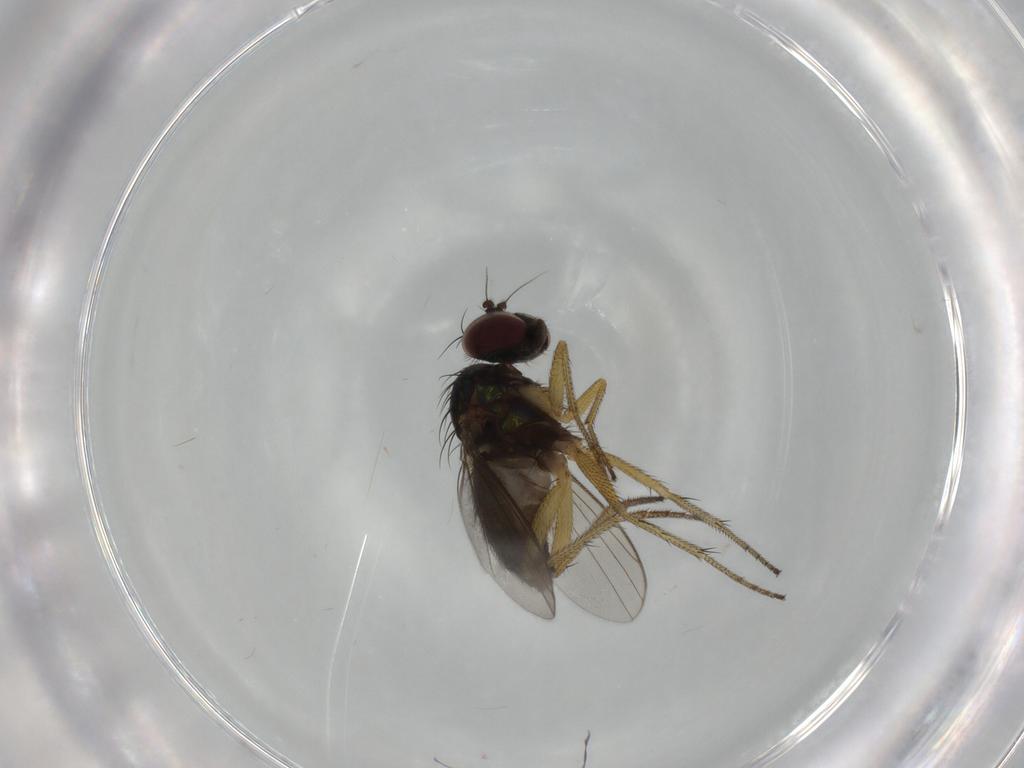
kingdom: Animalia
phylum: Arthropoda
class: Insecta
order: Diptera
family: Dolichopodidae
